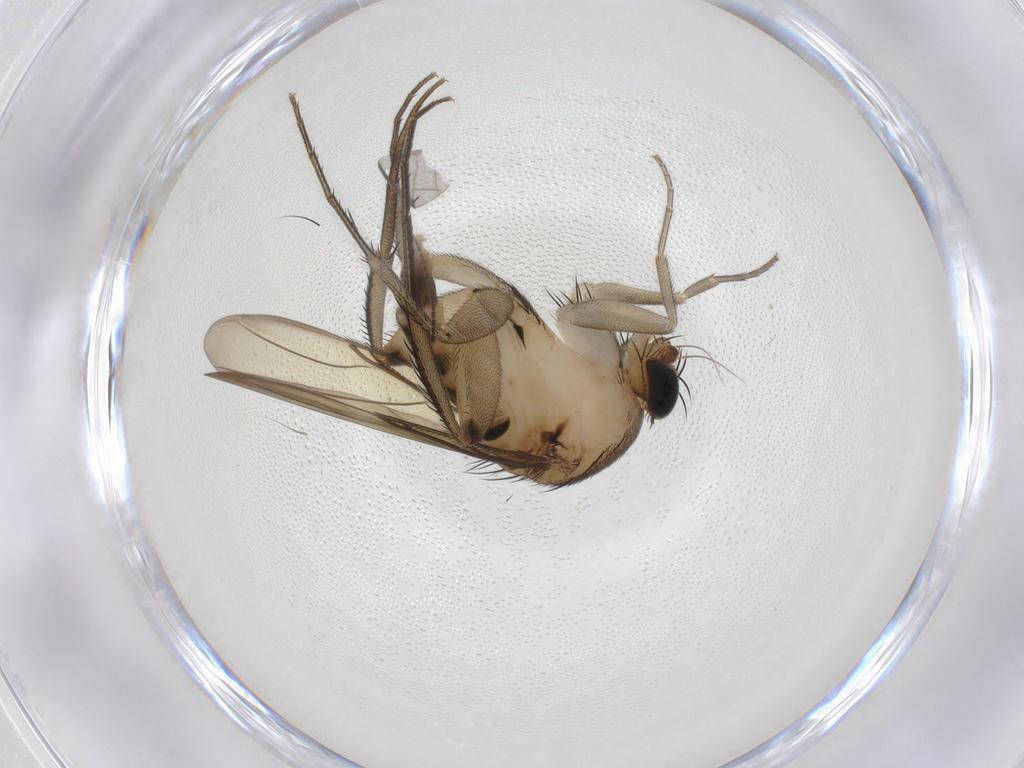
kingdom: Animalia
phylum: Arthropoda
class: Insecta
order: Diptera
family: Phoridae
